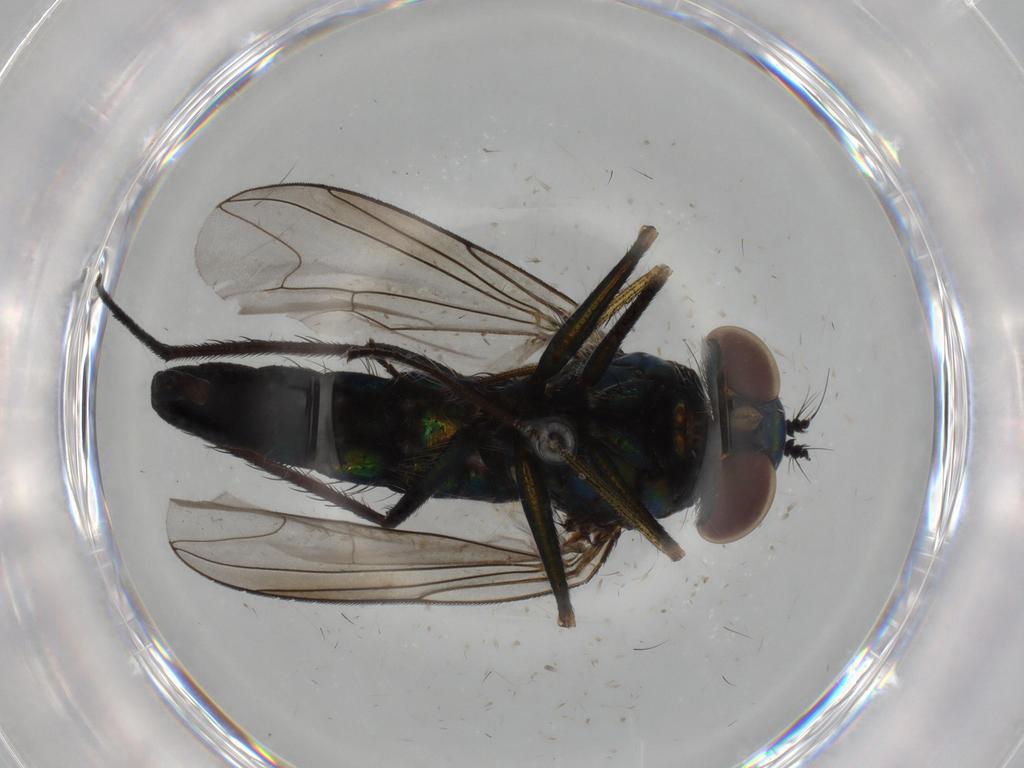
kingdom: Animalia
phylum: Arthropoda
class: Insecta
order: Diptera
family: Dolichopodidae
